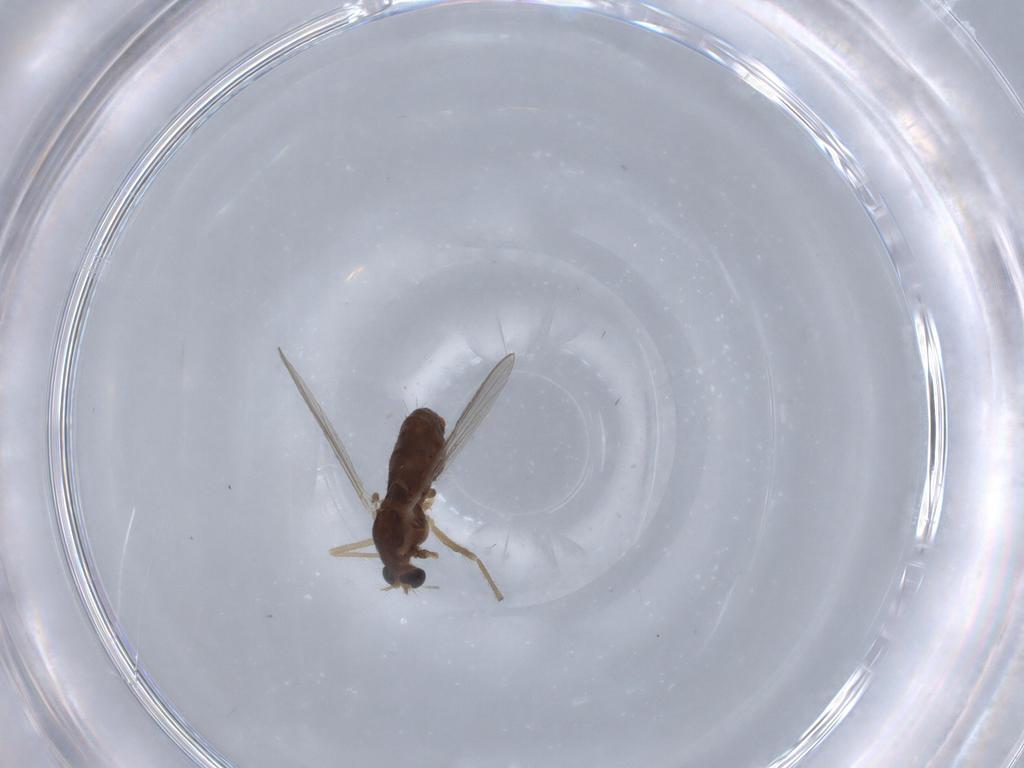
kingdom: Animalia
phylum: Arthropoda
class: Insecta
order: Diptera
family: Chironomidae
